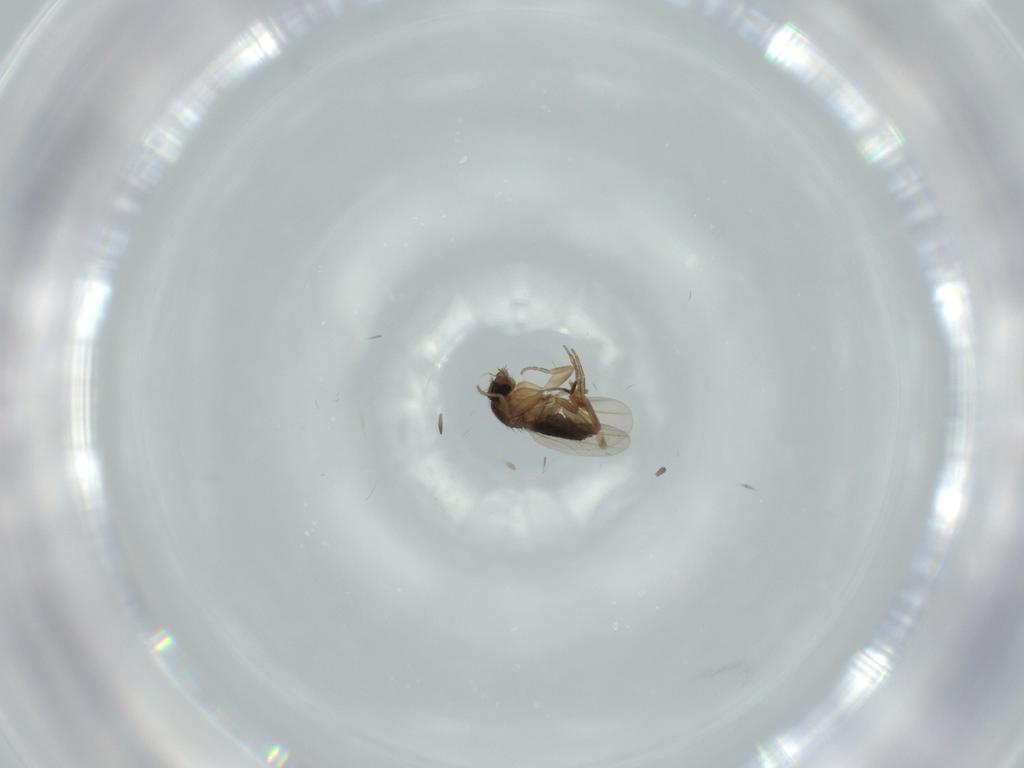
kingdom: Animalia
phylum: Arthropoda
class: Insecta
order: Diptera
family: Phoridae
